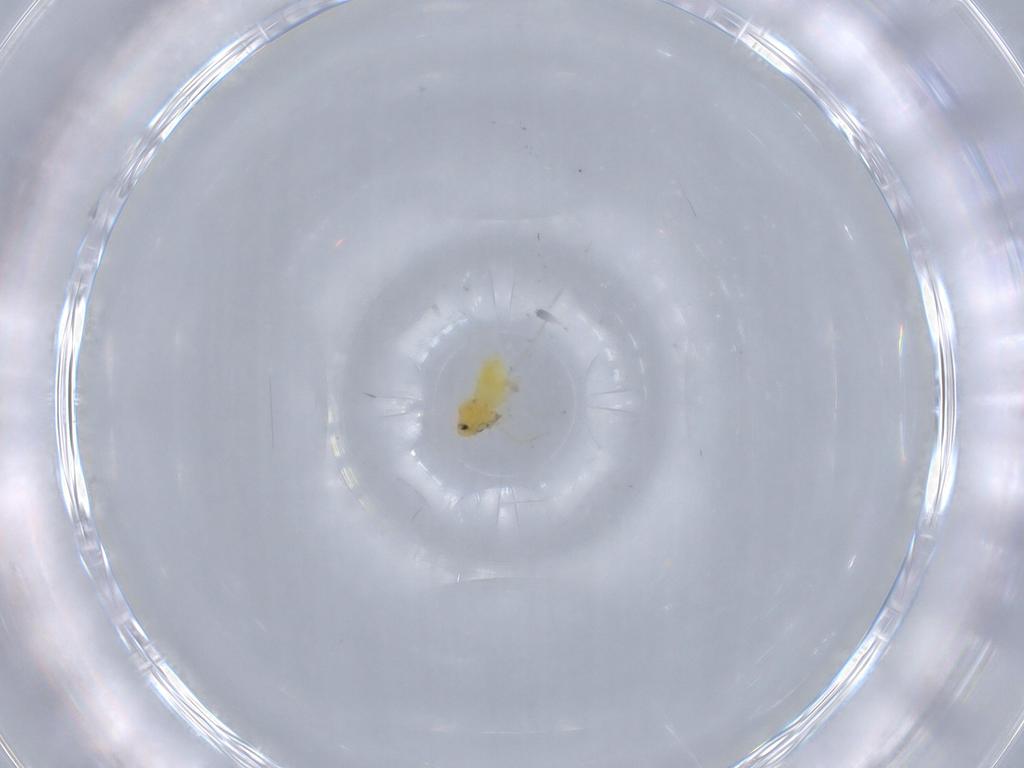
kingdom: Animalia
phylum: Arthropoda
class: Insecta
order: Hemiptera
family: Aleyrodidae
